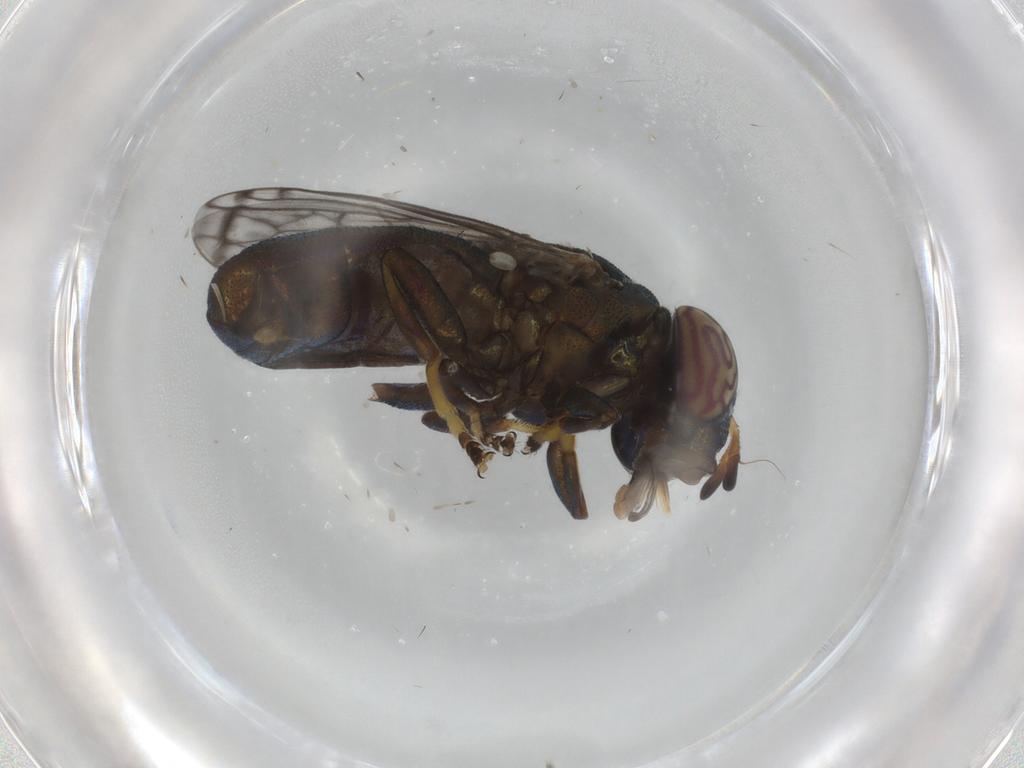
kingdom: Animalia
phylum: Arthropoda
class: Insecta
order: Diptera
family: Syrphidae
